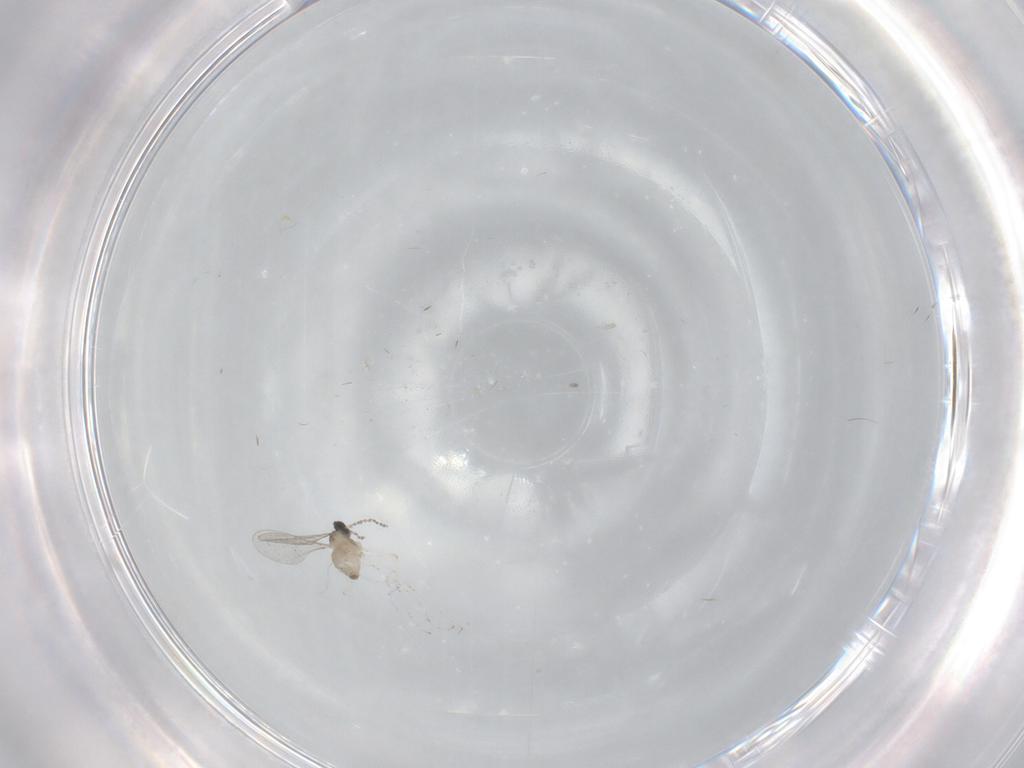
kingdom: Animalia
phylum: Arthropoda
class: Insecta
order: Diptera
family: Cecidomyiidae
